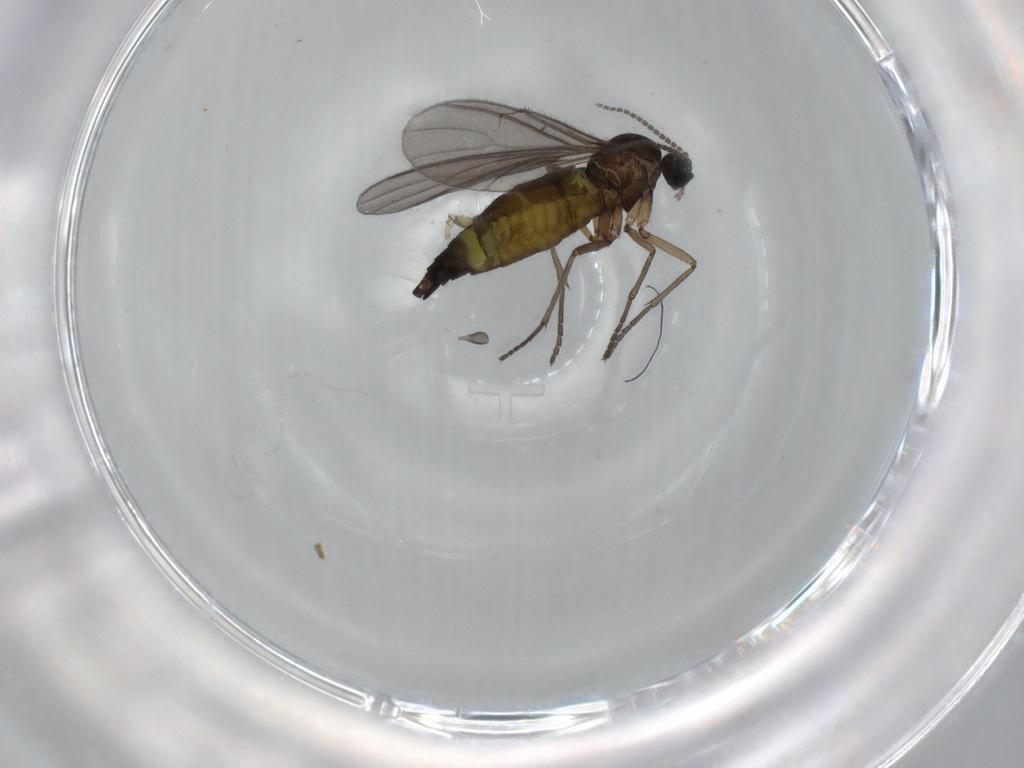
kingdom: Animalia
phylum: Arthropoda
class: Insecta
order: Diptera
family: Sciaridae
